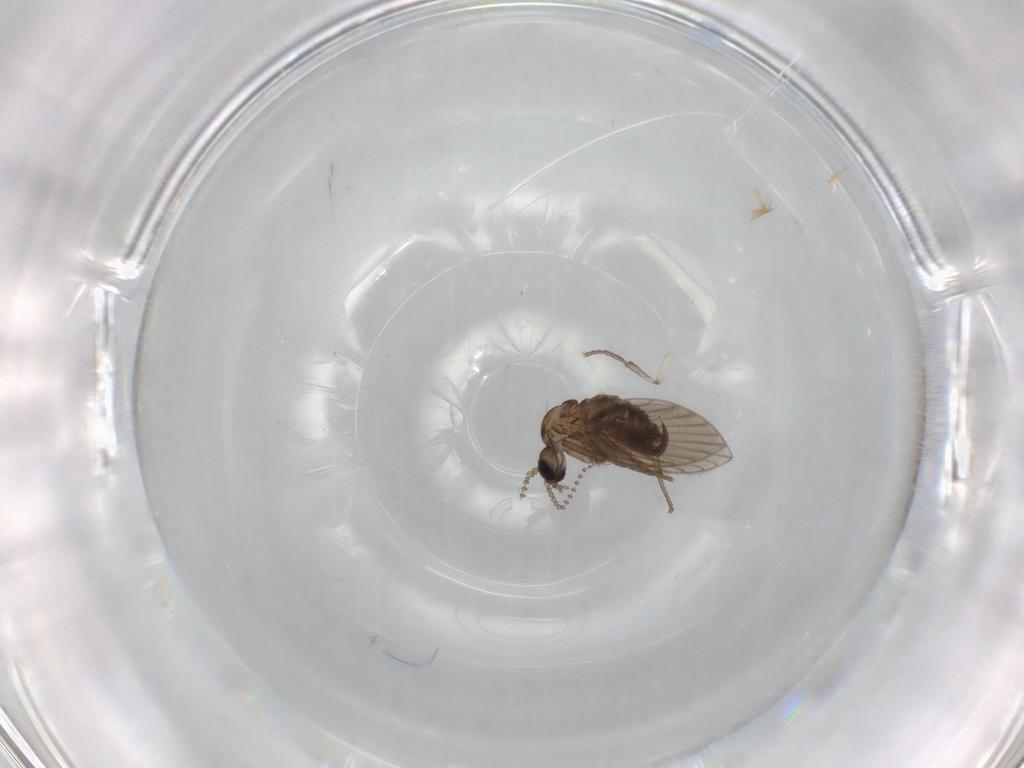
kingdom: Animalia
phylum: Arthropoda
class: Insecta
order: Diptera
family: Psychodidae
